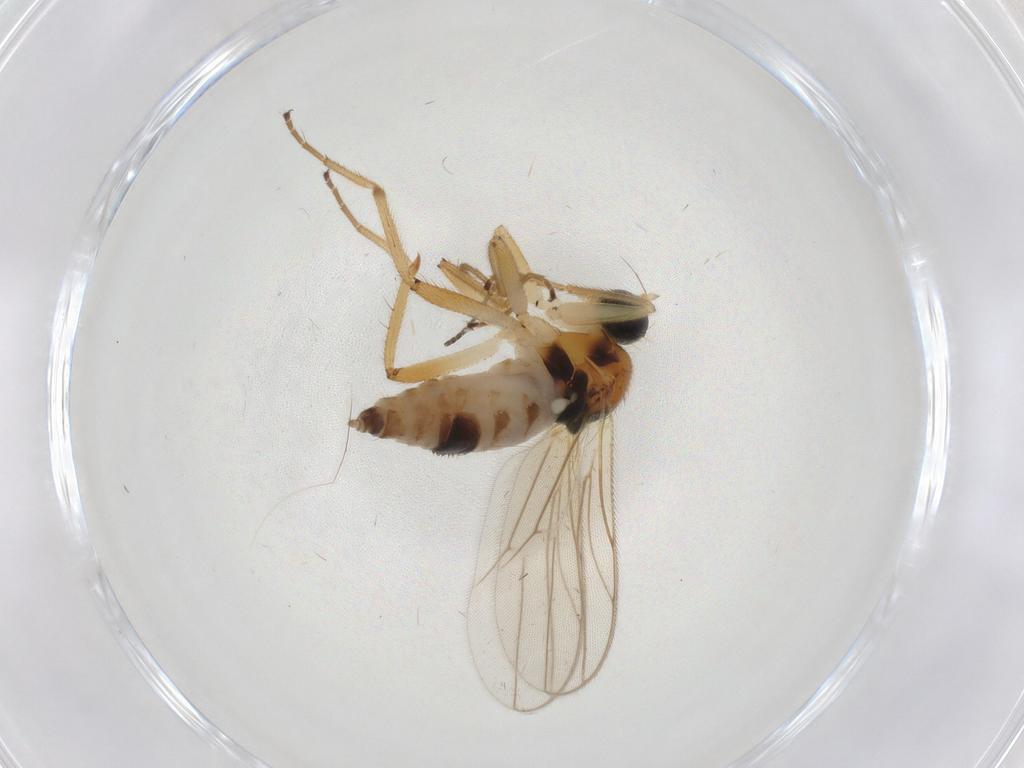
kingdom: Animalia
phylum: Arthropoda
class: Insecta
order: Diptera
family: Hybotidae
